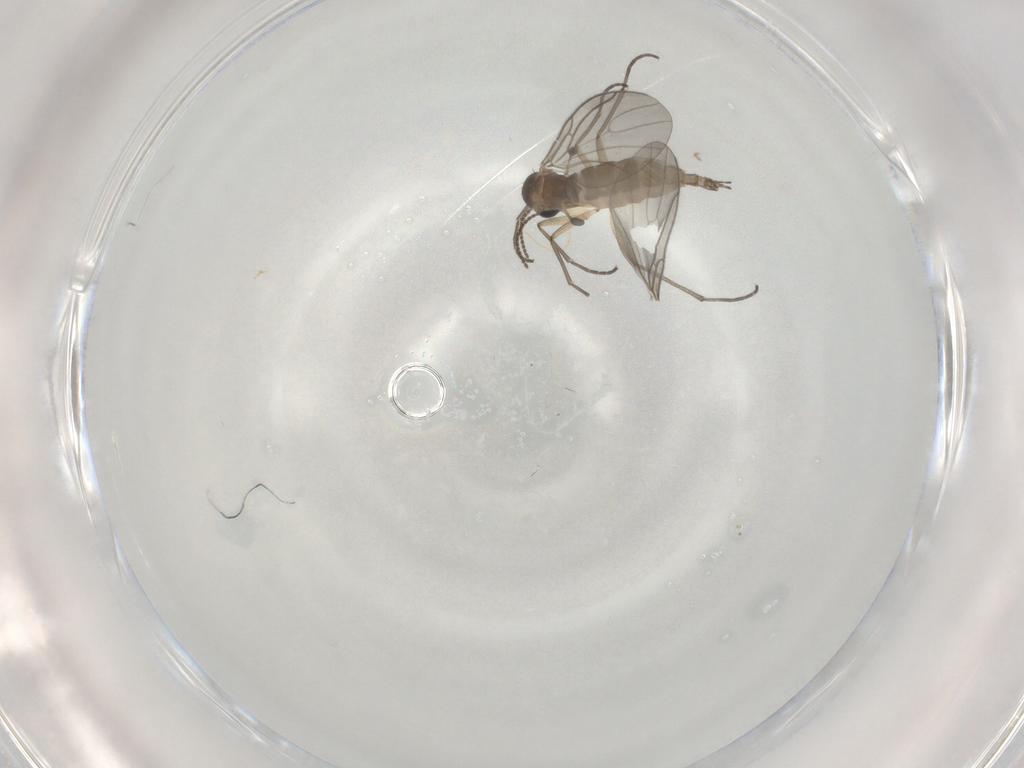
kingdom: Animalia
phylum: Arthropoda
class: Insecta
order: Diptera
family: Sciaridae
